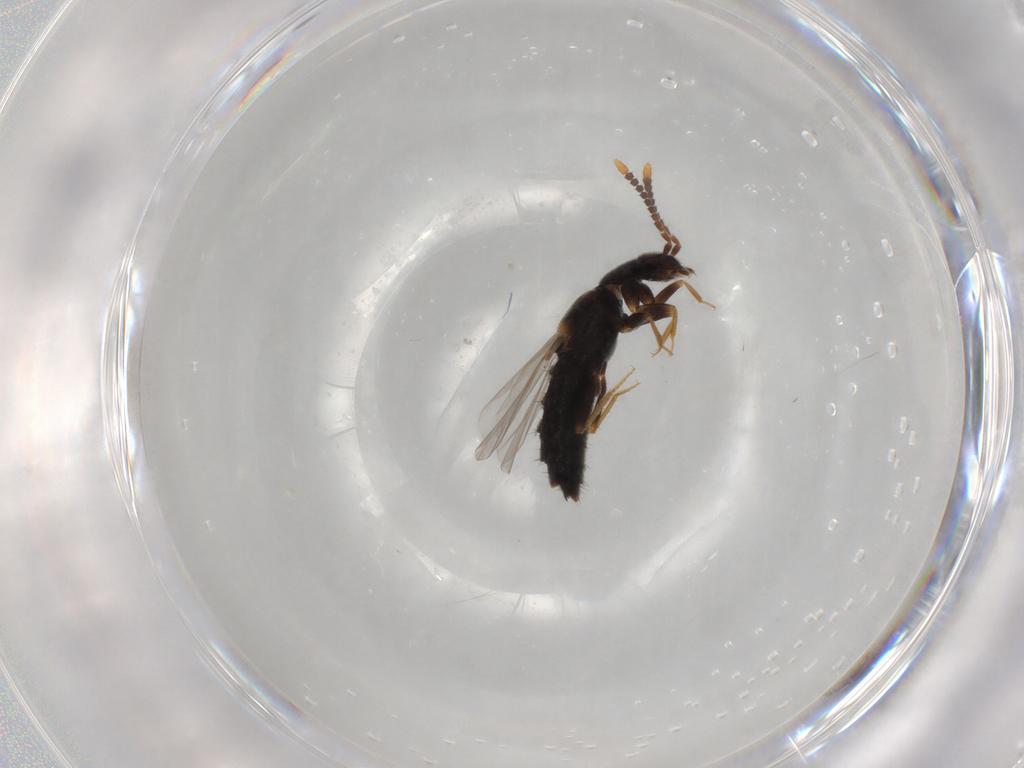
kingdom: Animalia
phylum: Arthropoda
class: Insecta
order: Coleoptera
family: Staphylinidae
